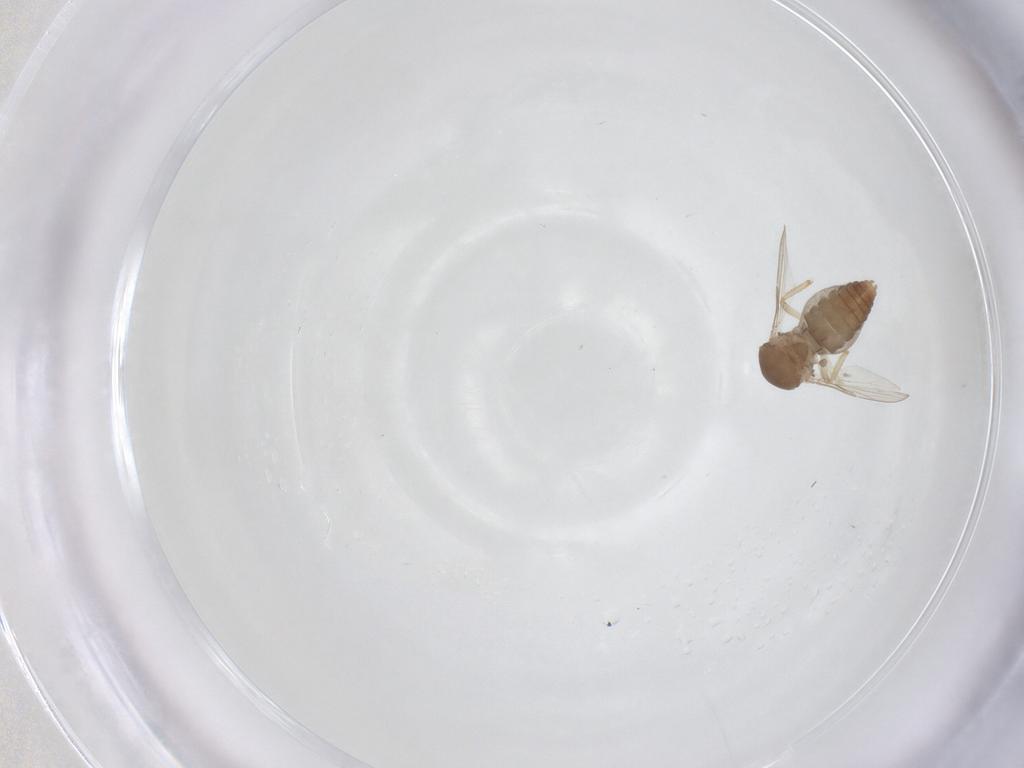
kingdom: Animalia
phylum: Arthropoda
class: Insecta
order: Diptera
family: Ceratopogonidae
